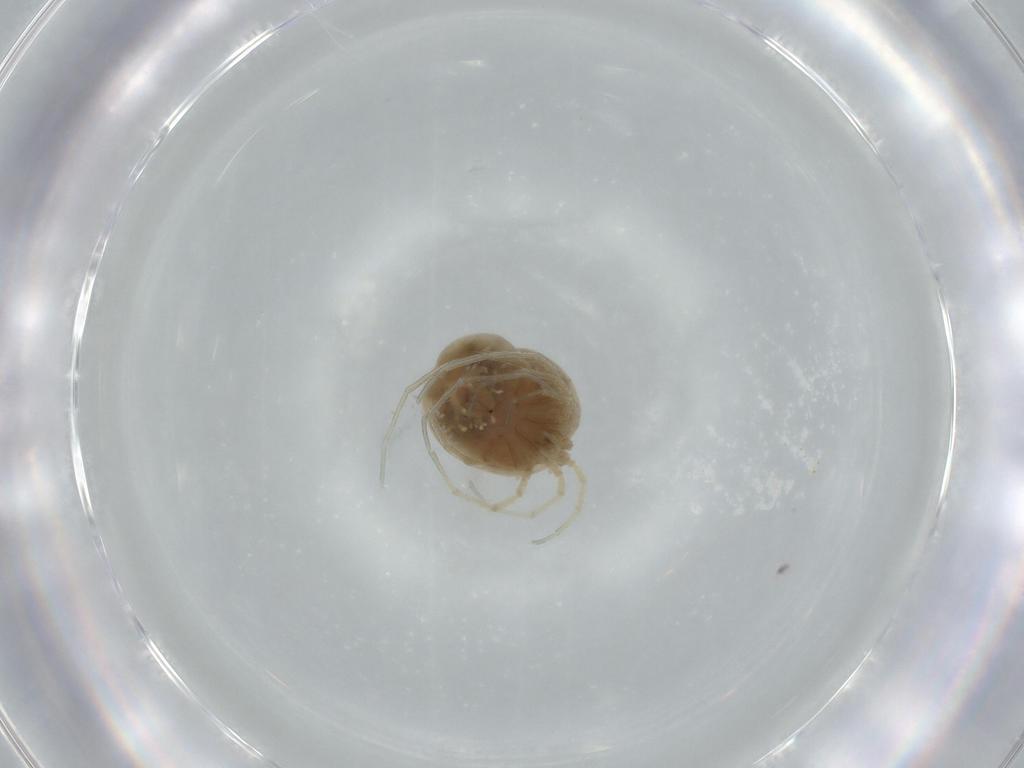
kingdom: Animalia
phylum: Arthropoda
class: Arachnida
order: Trombidiformes
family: Hygrobatidae
